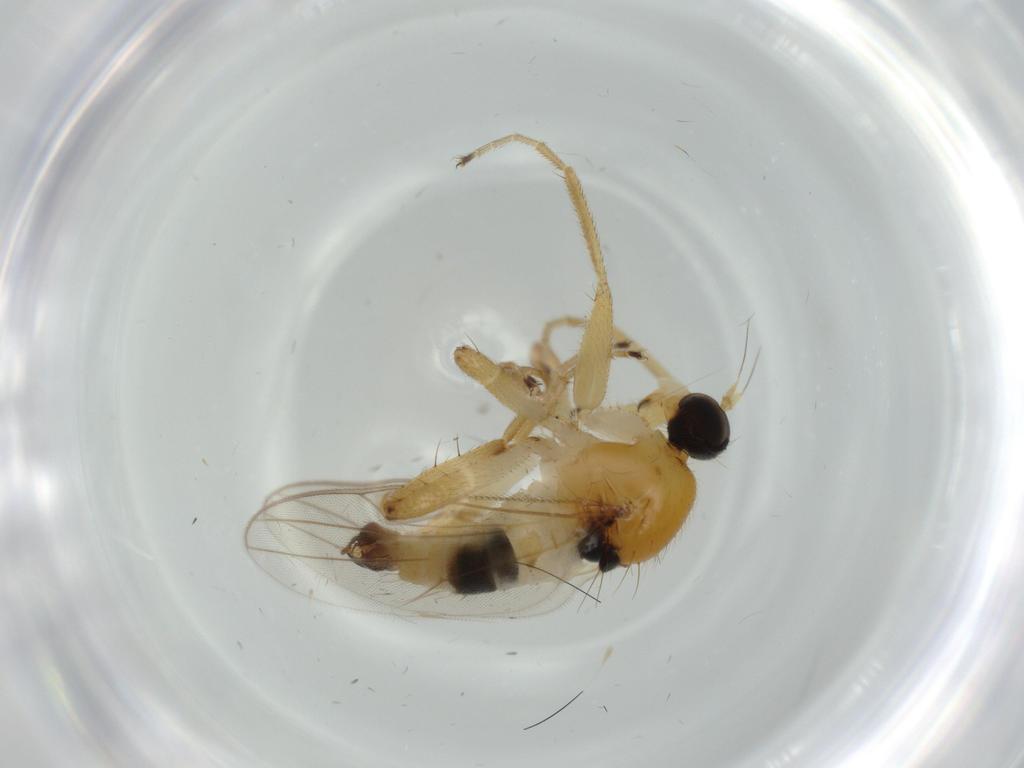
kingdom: Animalia
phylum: Arthropoda
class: Insecta
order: Diptera
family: Hybotidae
